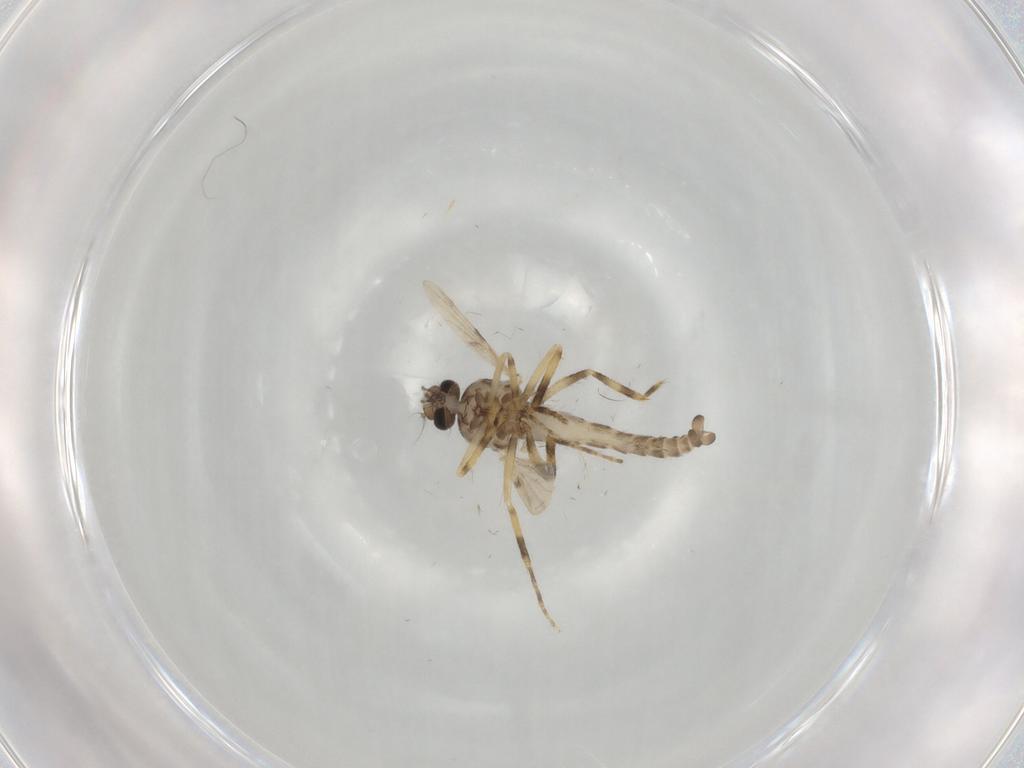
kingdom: Animalia
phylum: Arthropoda
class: Insecta
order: Diptera
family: Ceratopogonidae
